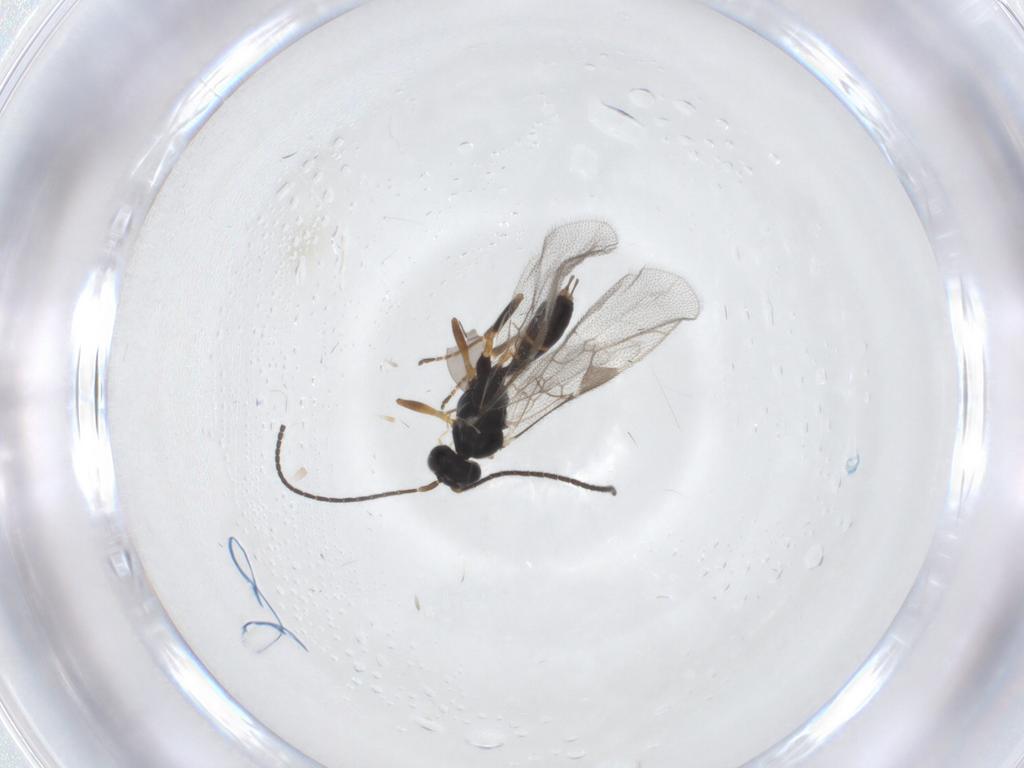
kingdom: Animalia
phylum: Arthropoda
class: Insecta
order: Hymenoptera
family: Ichneumonidae
